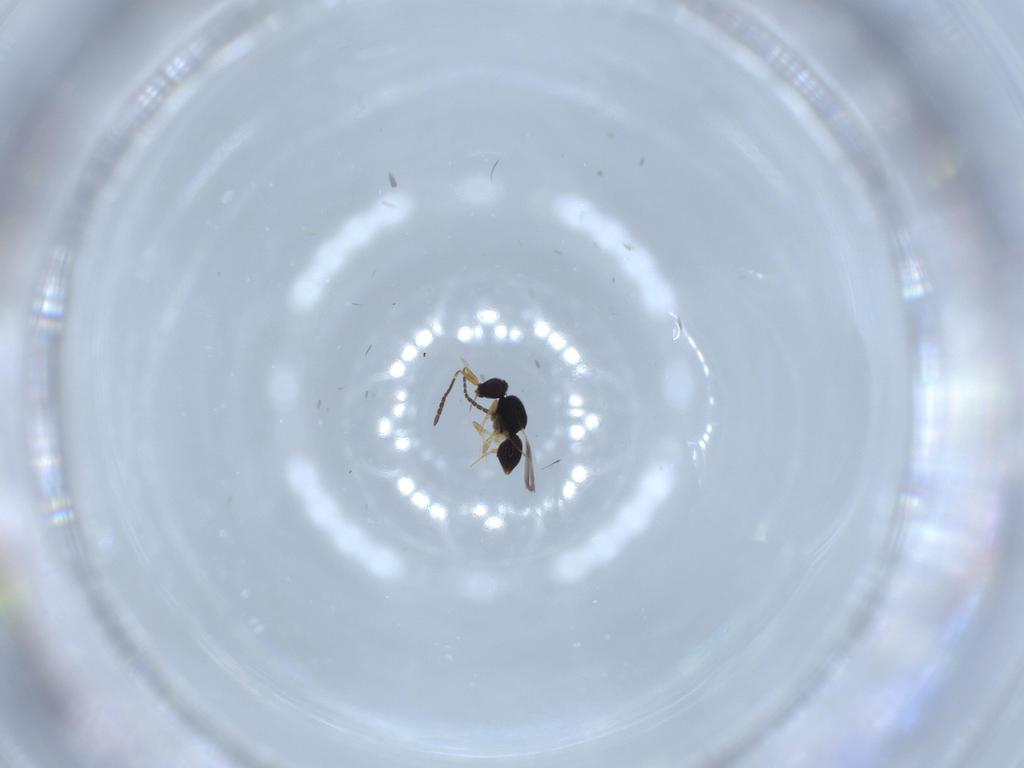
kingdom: Animalia
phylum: Arthropoda
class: Insecta
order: Hymenoptera
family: Ceraphronidae
